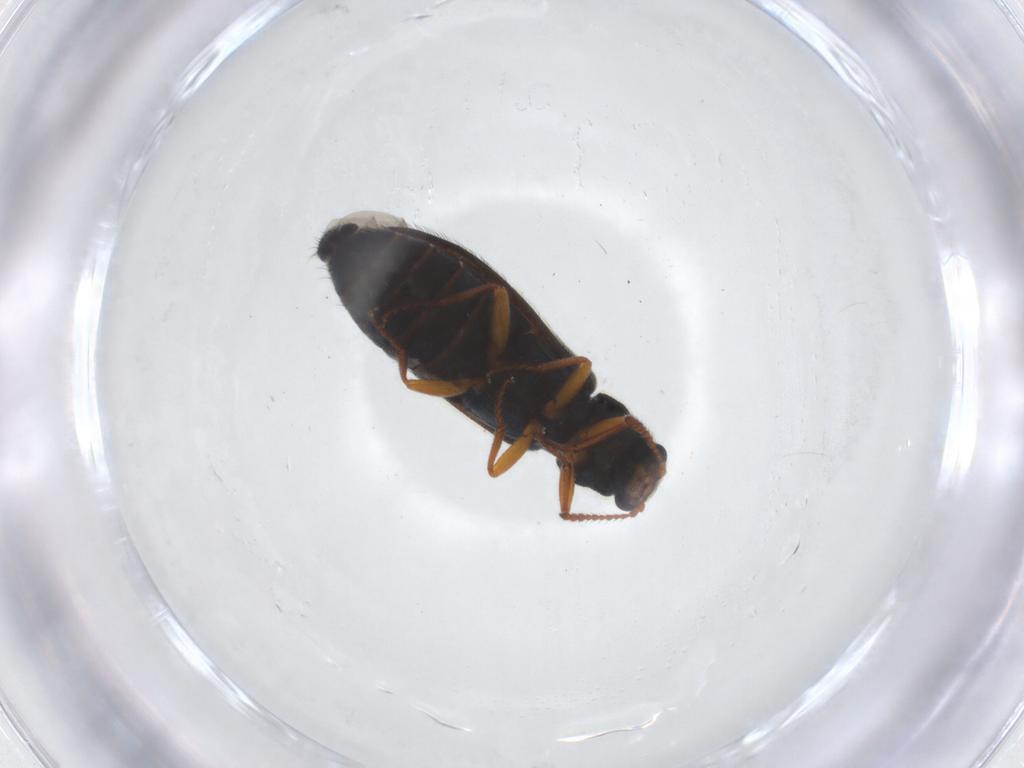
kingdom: Animalia
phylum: Arthropoda
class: Insecta
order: Coleoptera
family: Melyridae
